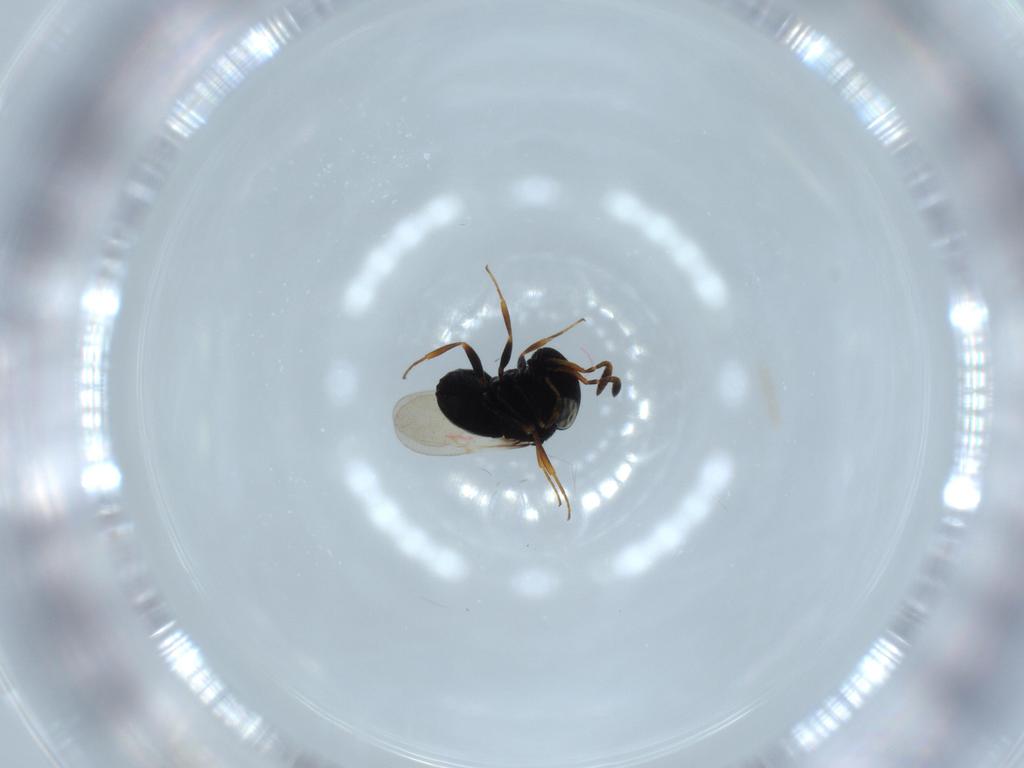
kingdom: Animalia
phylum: Arthropoda
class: Insecta
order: Hymenoptera
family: Scelionidae
